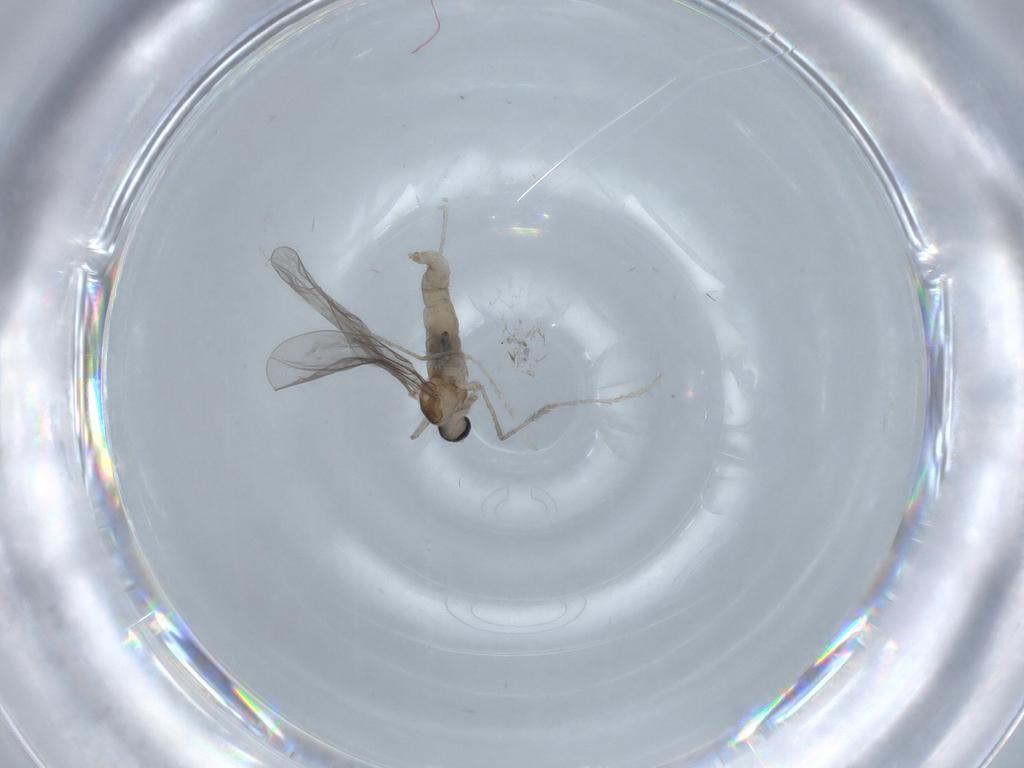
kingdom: Animalia
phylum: Arthropoda
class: Insecta
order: Diptera
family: Cecidomyiidae
